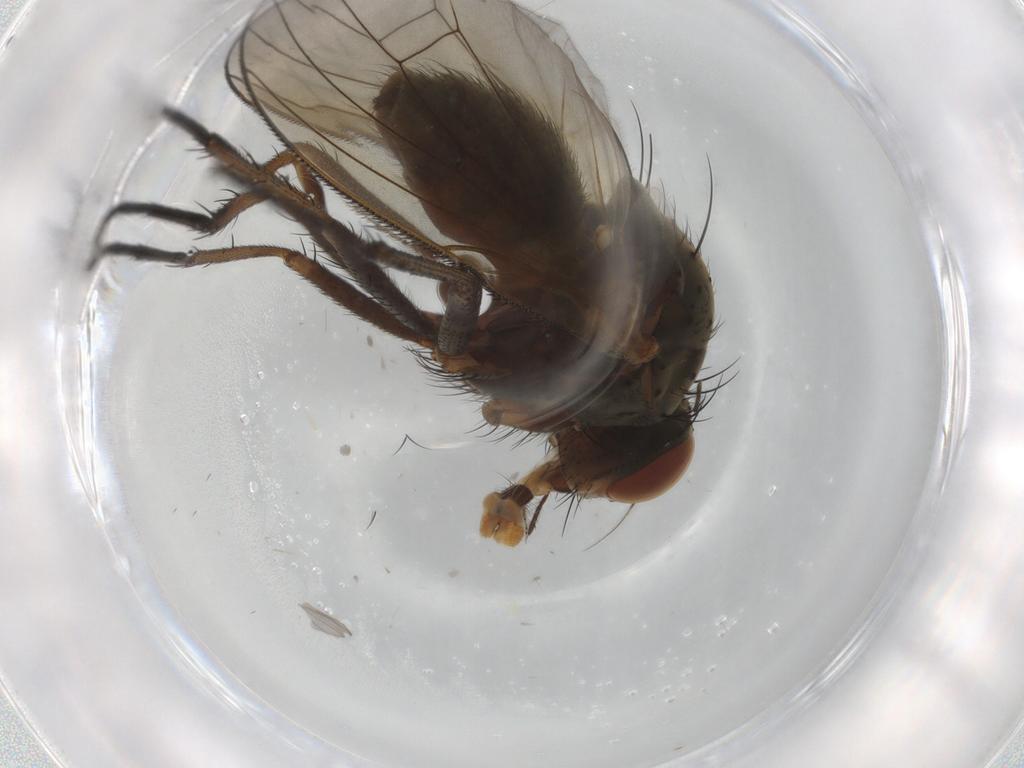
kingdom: Animalia
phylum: Arthropoda
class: Insecta
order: Diptera
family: Anthomyiidae
